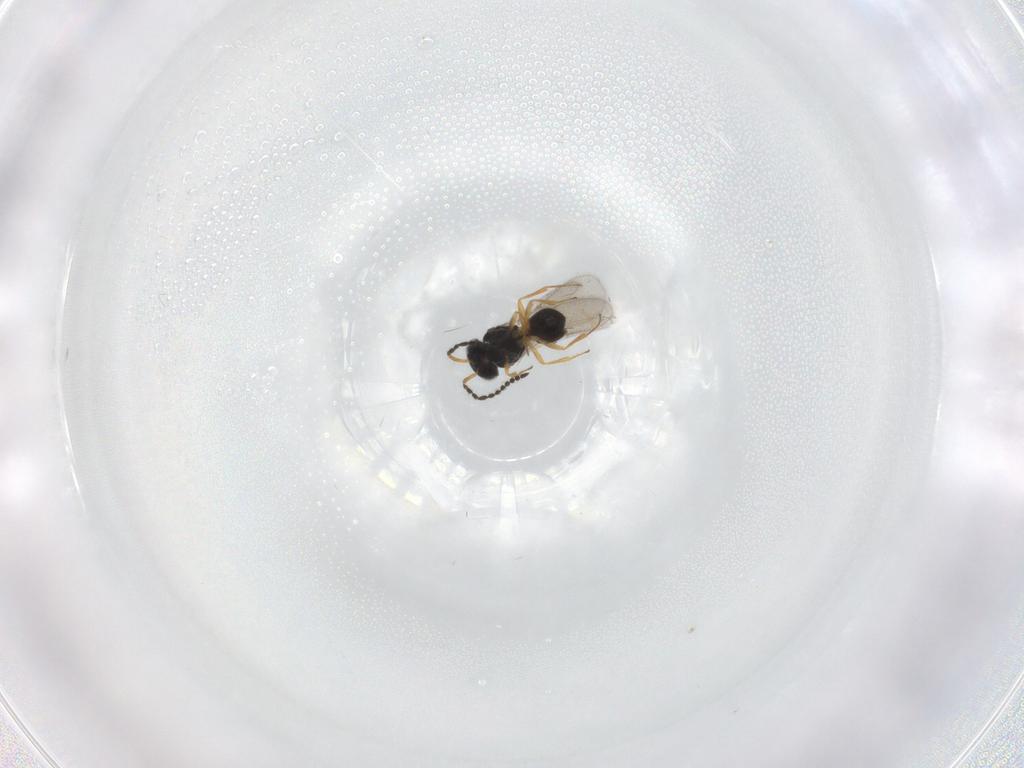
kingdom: Animalia
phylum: Arthropoda
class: Insecta
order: Hymenoptera
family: Scelionidae
